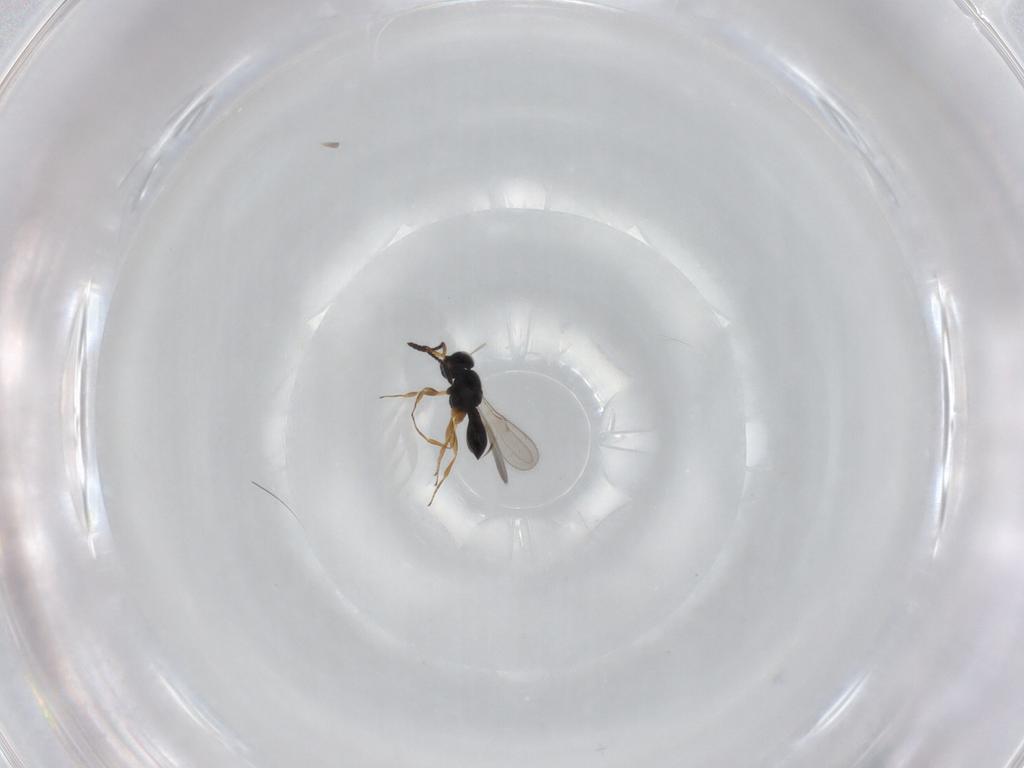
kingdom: Animalia
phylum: Arthropoda
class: Insecta
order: Hymenoptera
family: Scelionidae
